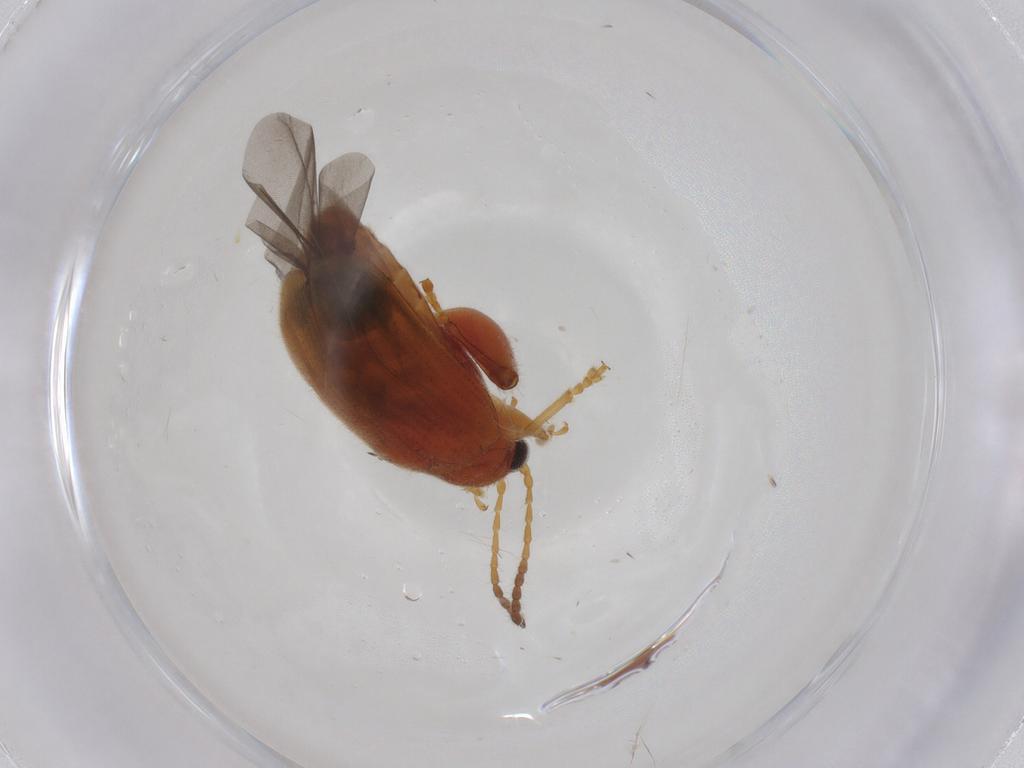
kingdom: Animalia
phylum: Arthropoda
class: Insecta
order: Coleoptera
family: Chrysomelidae
